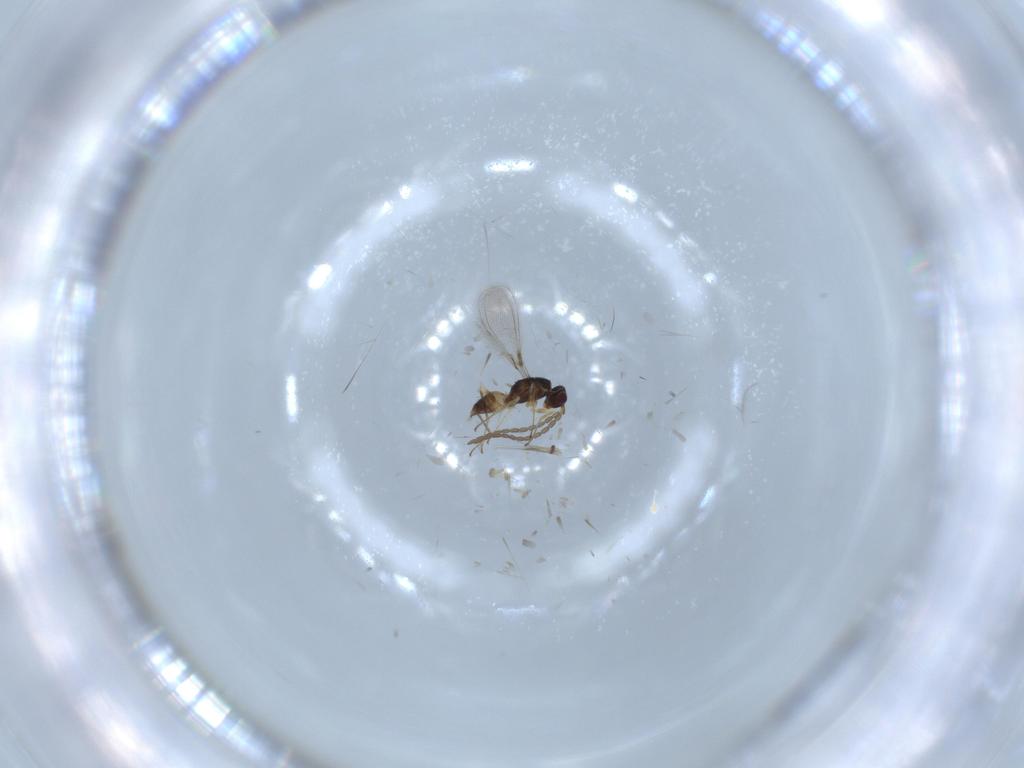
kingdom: Animalia
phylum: Arthropoda
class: Insecta
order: Hymenoptera
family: Mymaridae
